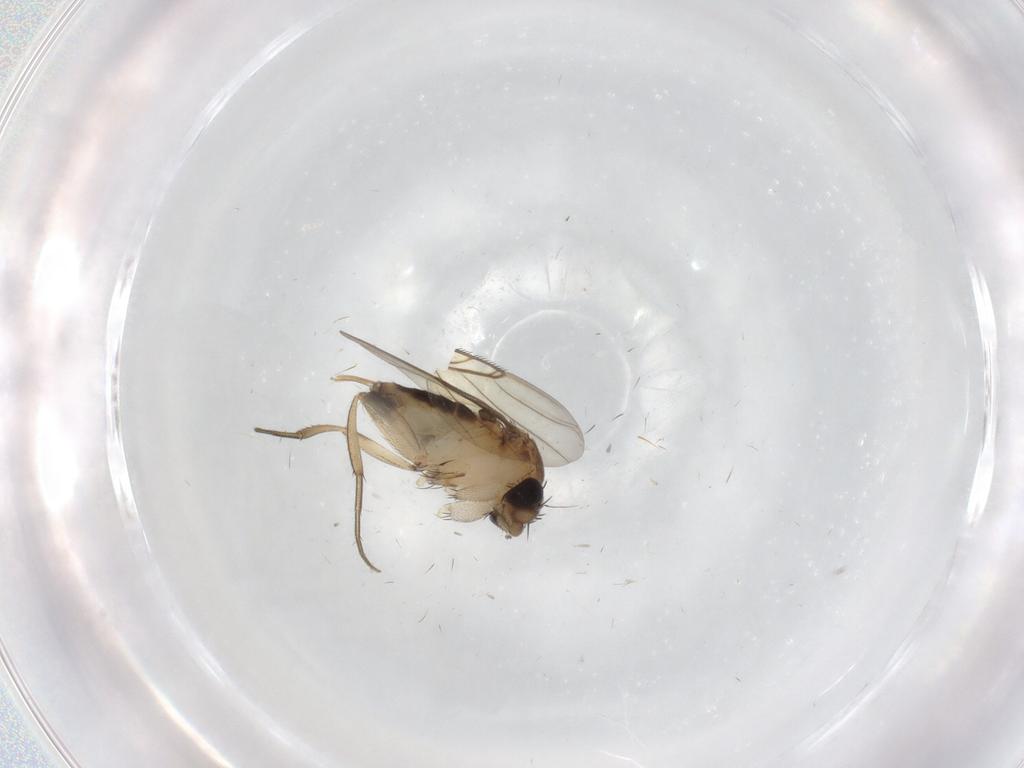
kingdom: Animalia
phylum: Arthropoda
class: Insecta
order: Diptera
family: Phoridae
